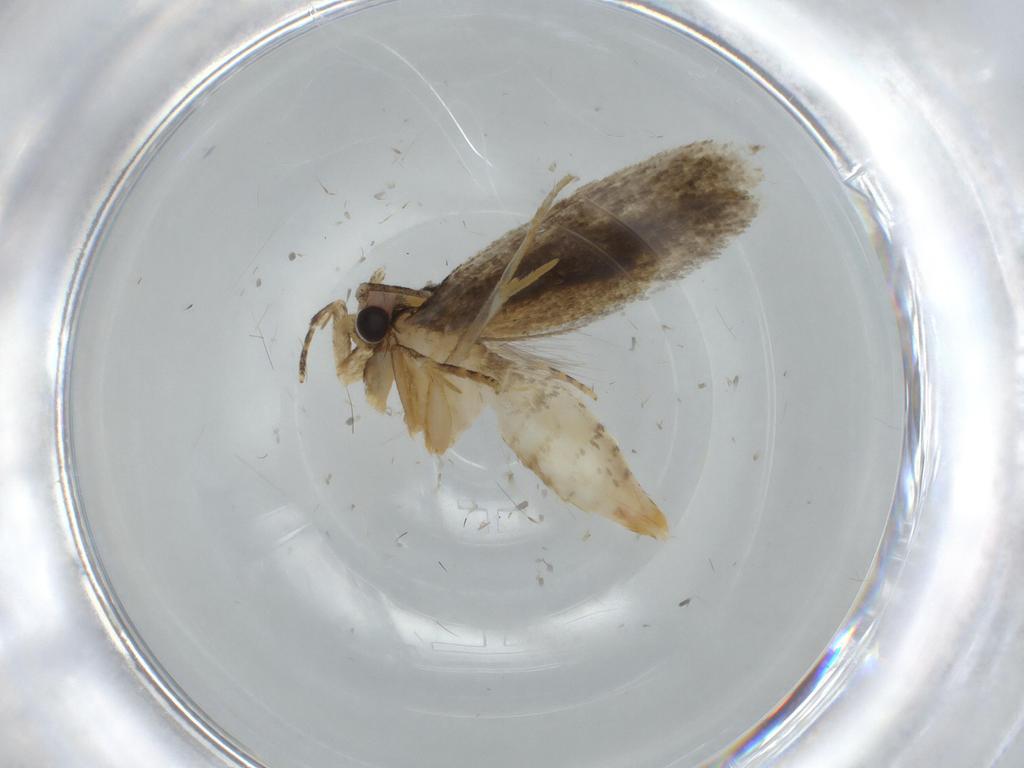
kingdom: Animalia
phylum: Arthropoda
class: Insecta
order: Lepidoptera
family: Tineidae
